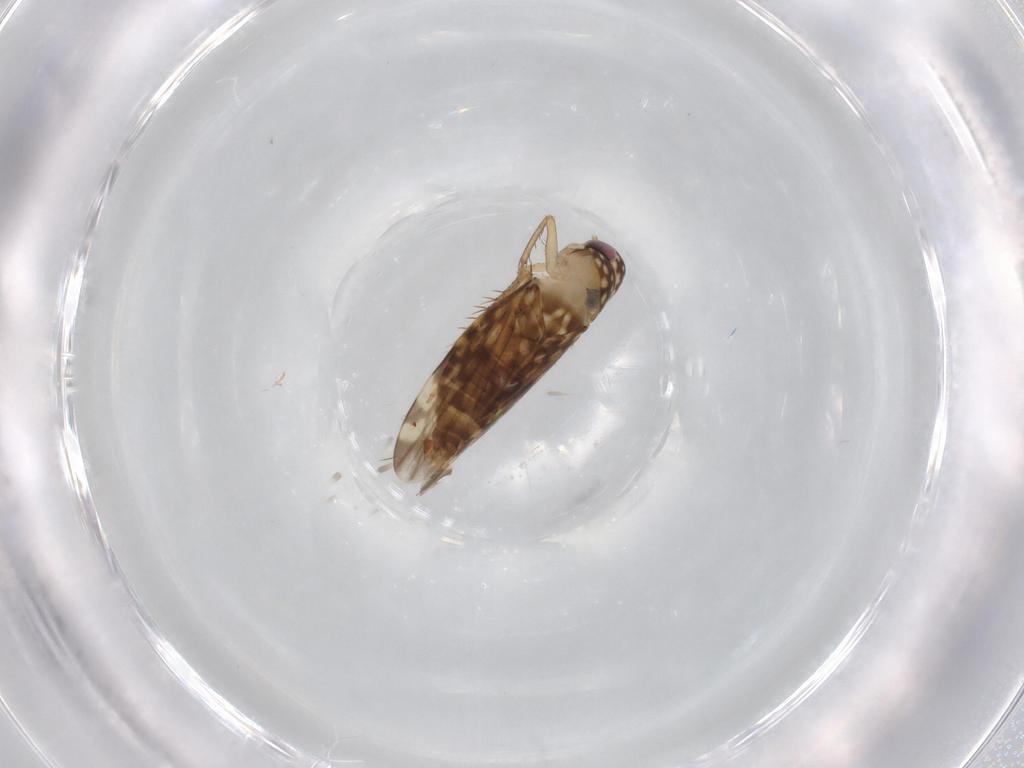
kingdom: Animalia
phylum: Arthropoda
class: Insecta
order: Hemiptera
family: Cicadellidae
